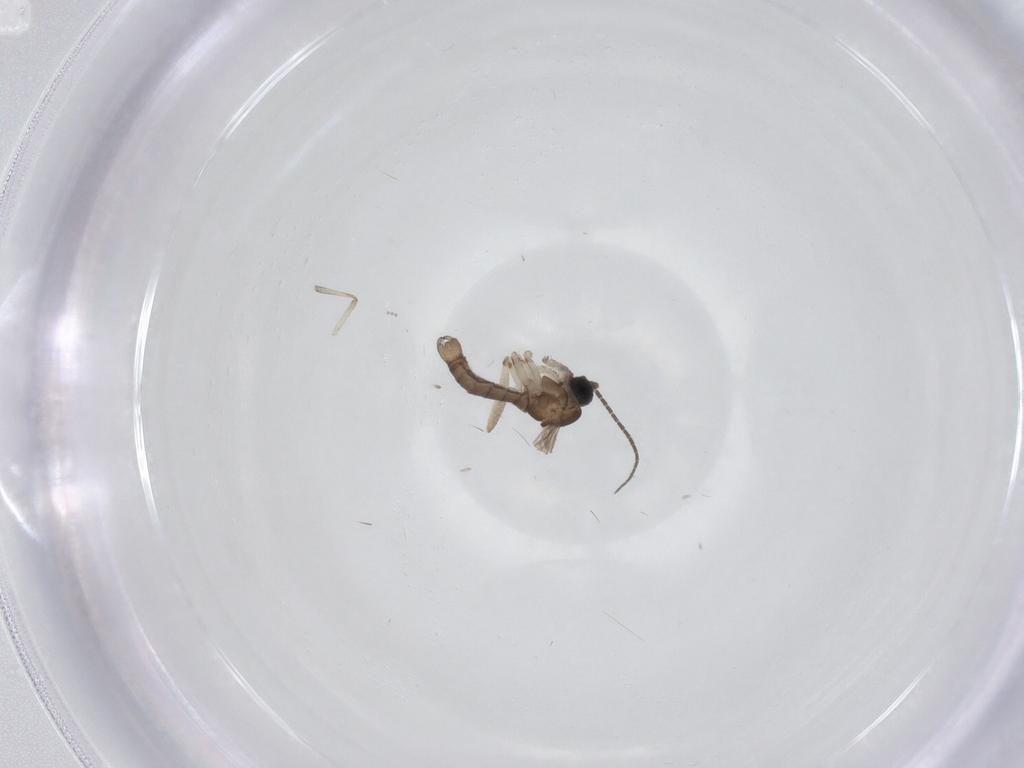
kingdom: Animalia
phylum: Arthropoda
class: Insecta
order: Diptera
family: Sciaridae
